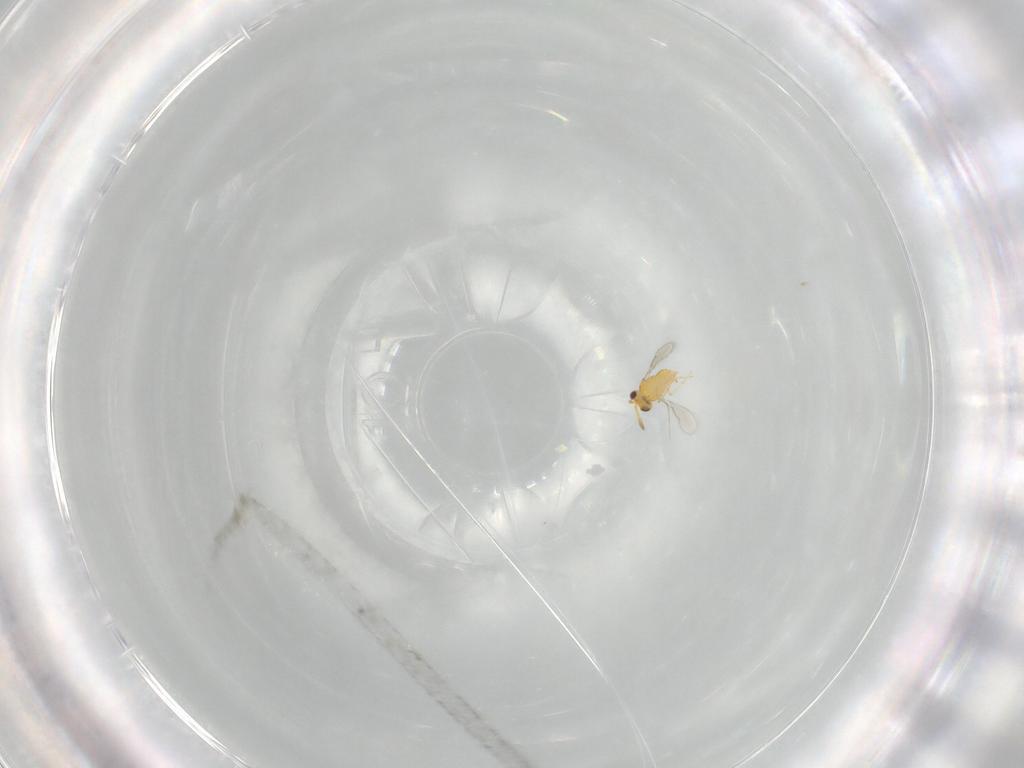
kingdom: Animalia
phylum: Arthropoda
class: Insecta
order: Hymenoptera
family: Aphelinidae
